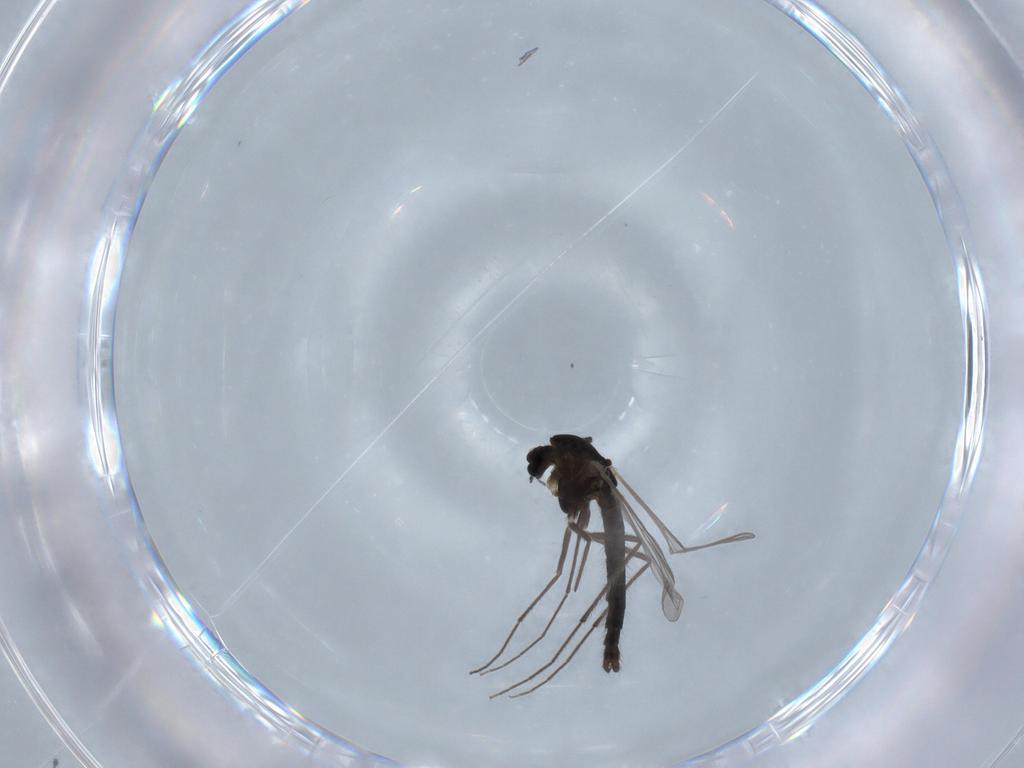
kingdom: Animalia
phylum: Arthropoda
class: Insecta
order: Diptera
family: Chironomidae
